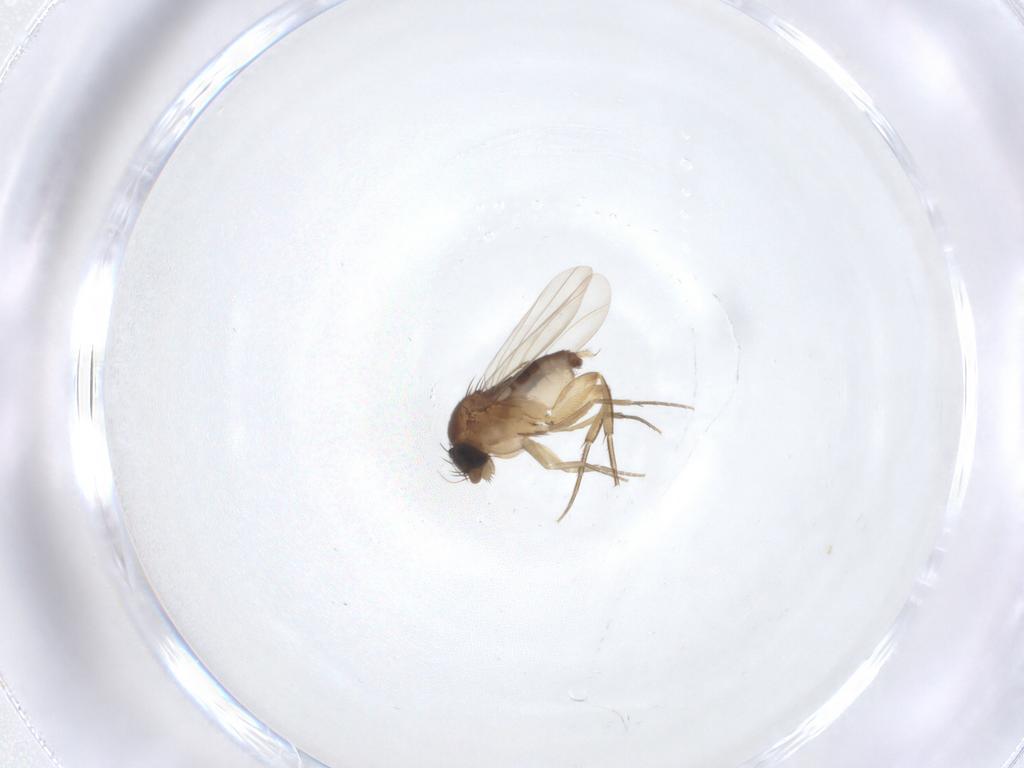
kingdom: Animalia
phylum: Arthropoda
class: Insecta
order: Diptera
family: Phoridae
